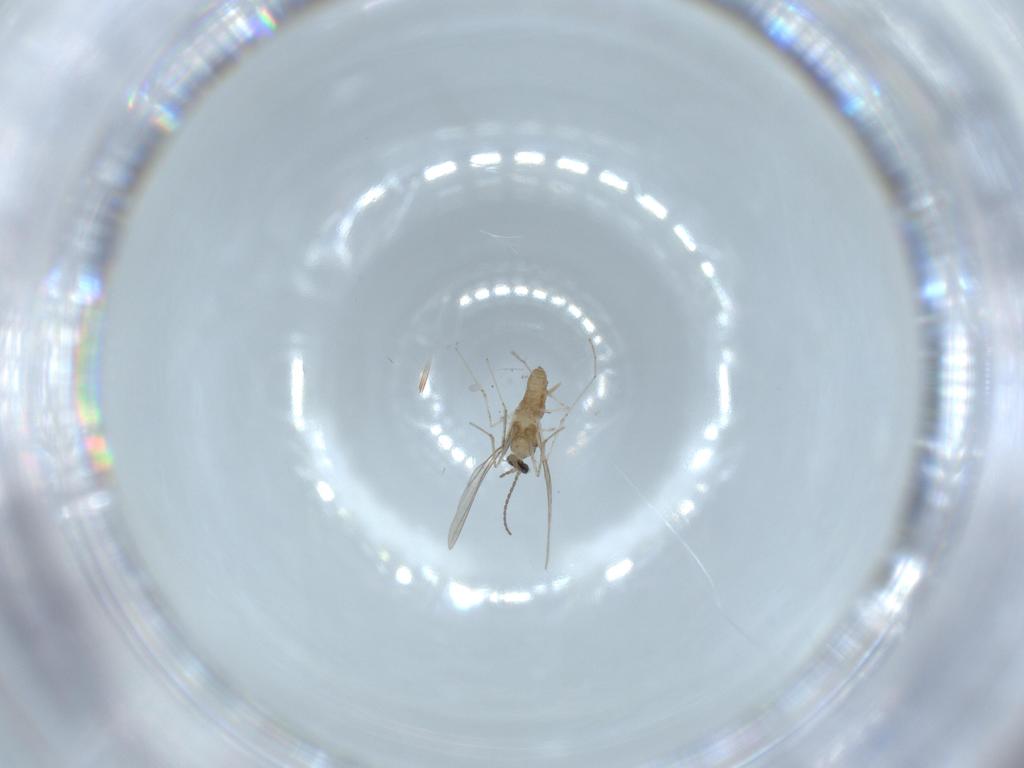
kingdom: Animalia
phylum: Arthropoda
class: Insecta
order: Diptera
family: Cecidomyiidae
